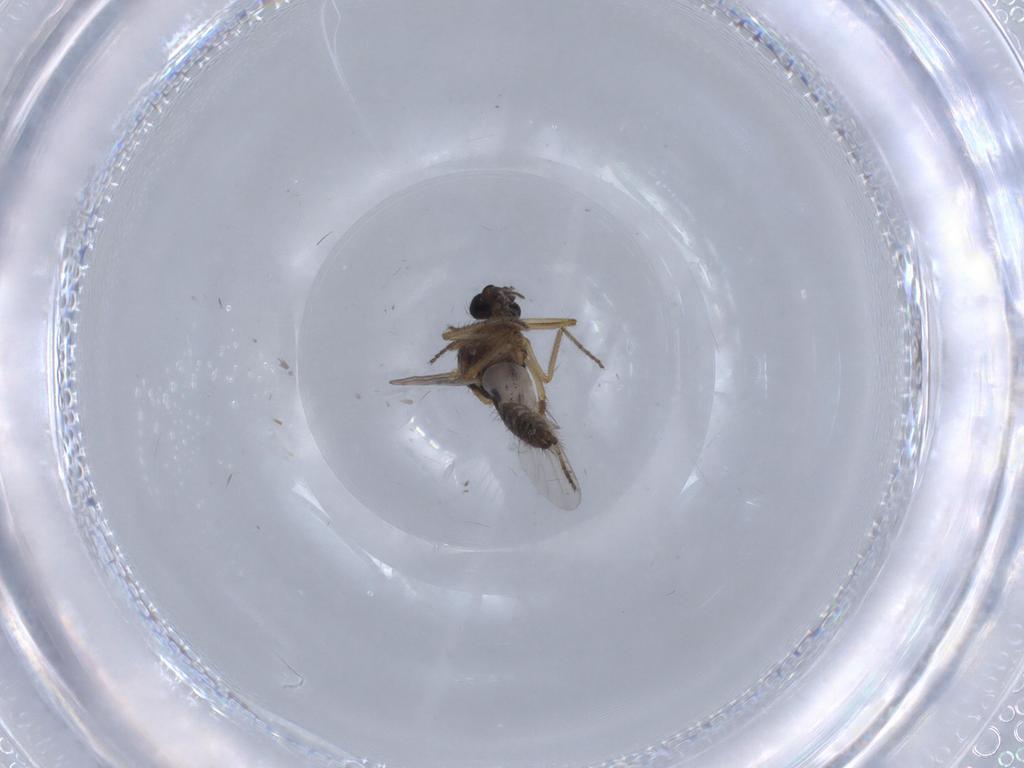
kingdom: Animalia
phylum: Arthropoda
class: Insecta
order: Diptera
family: Ceratopogonidae
